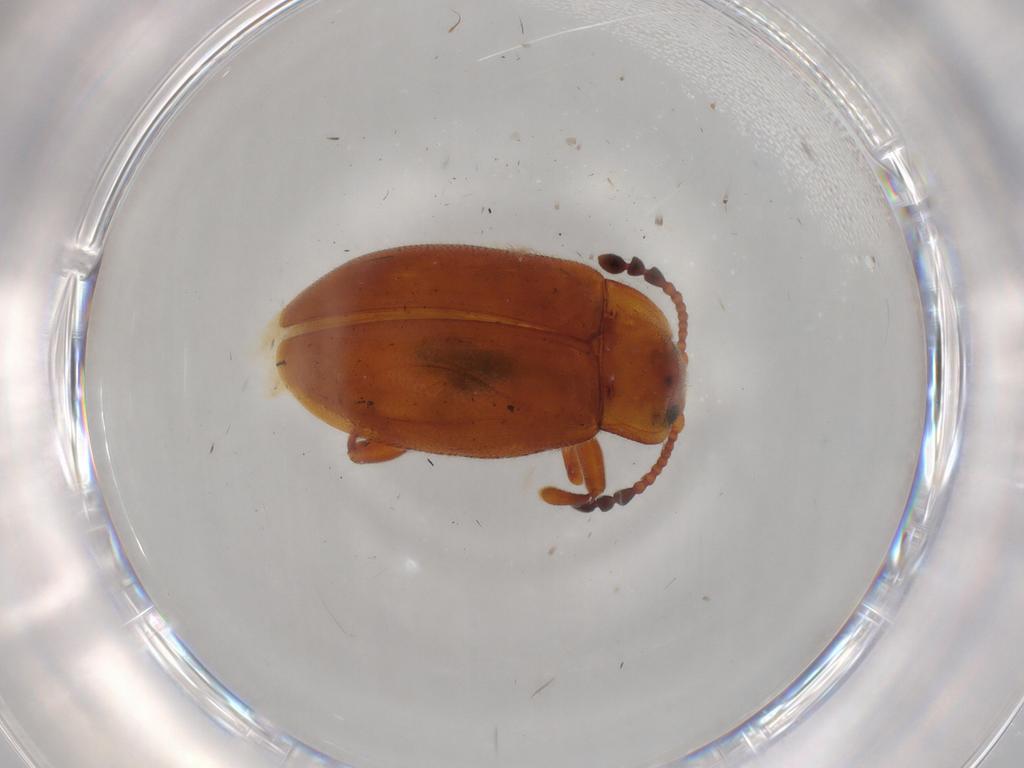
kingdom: Animalia
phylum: Arthropoda
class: Insecta
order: Coleoptera
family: Endomychidae
